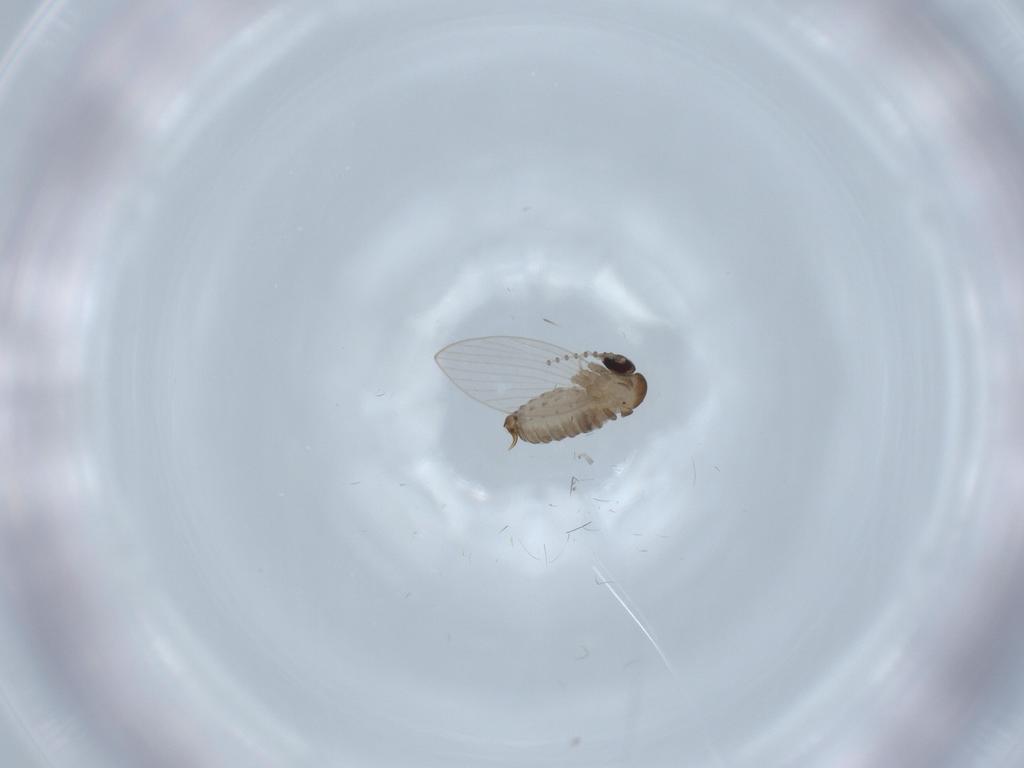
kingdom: Animalia
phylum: Arthropoda
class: Insecta
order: Diptera
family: Psychodidae
